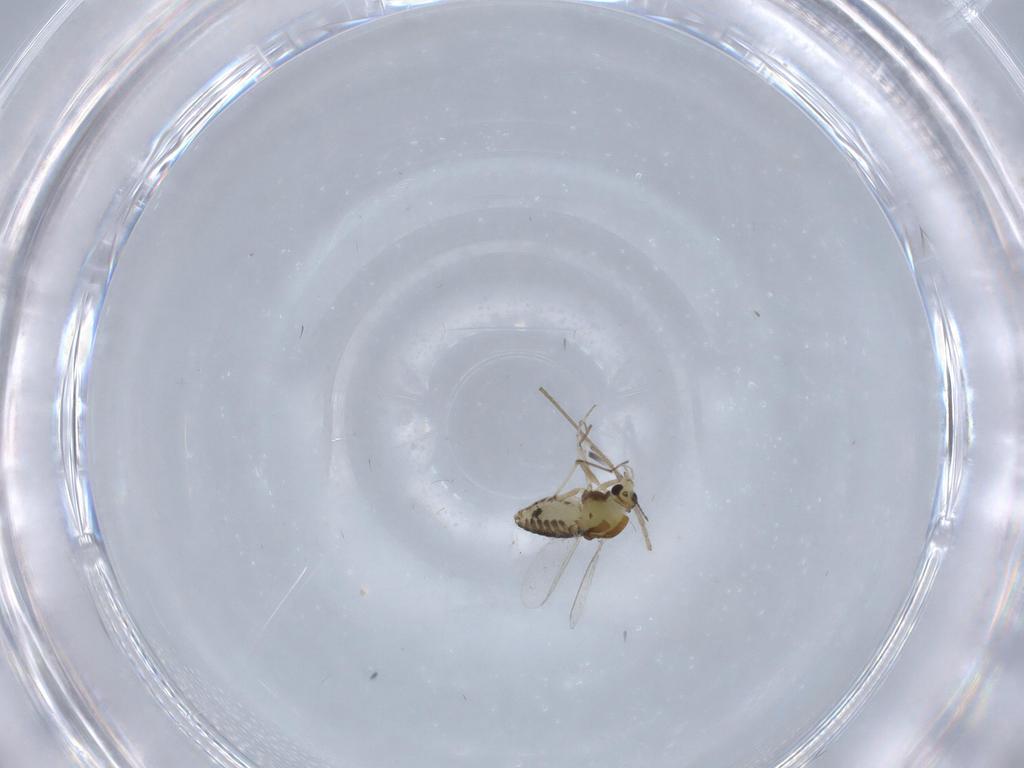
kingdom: Animalia
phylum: Arthropoda
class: Insecta
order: Diptera
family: Chironomidae
